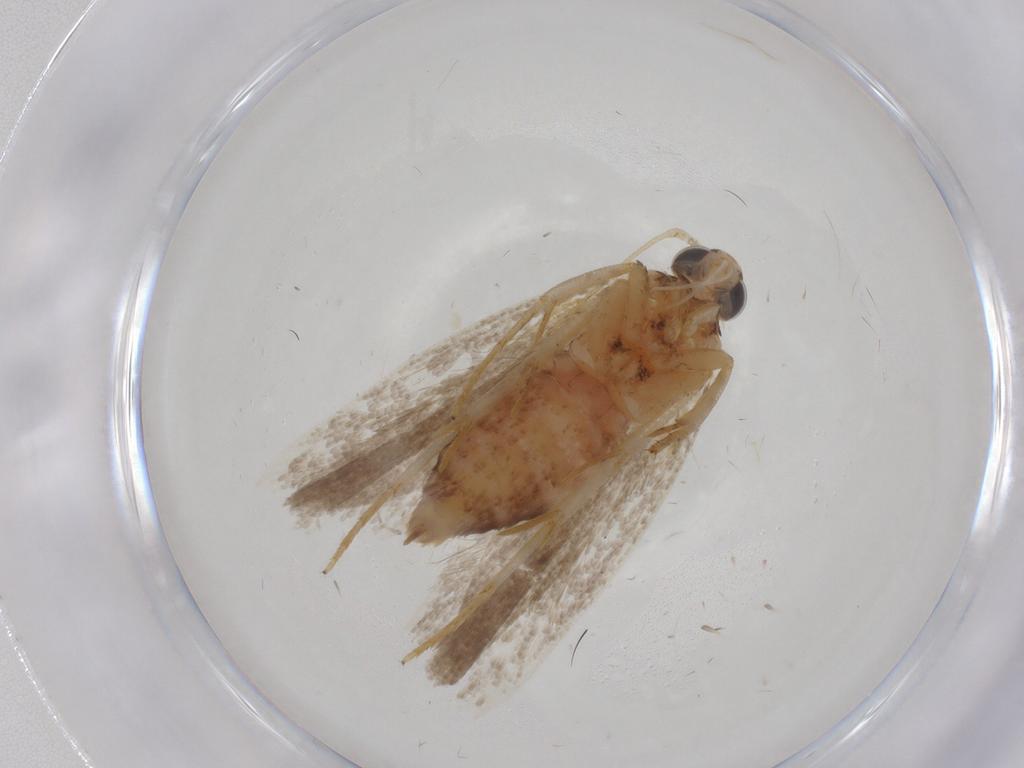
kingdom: Animalia
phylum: Arthropoda
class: Insecta
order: Lepidoptera
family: Gelechiidae
